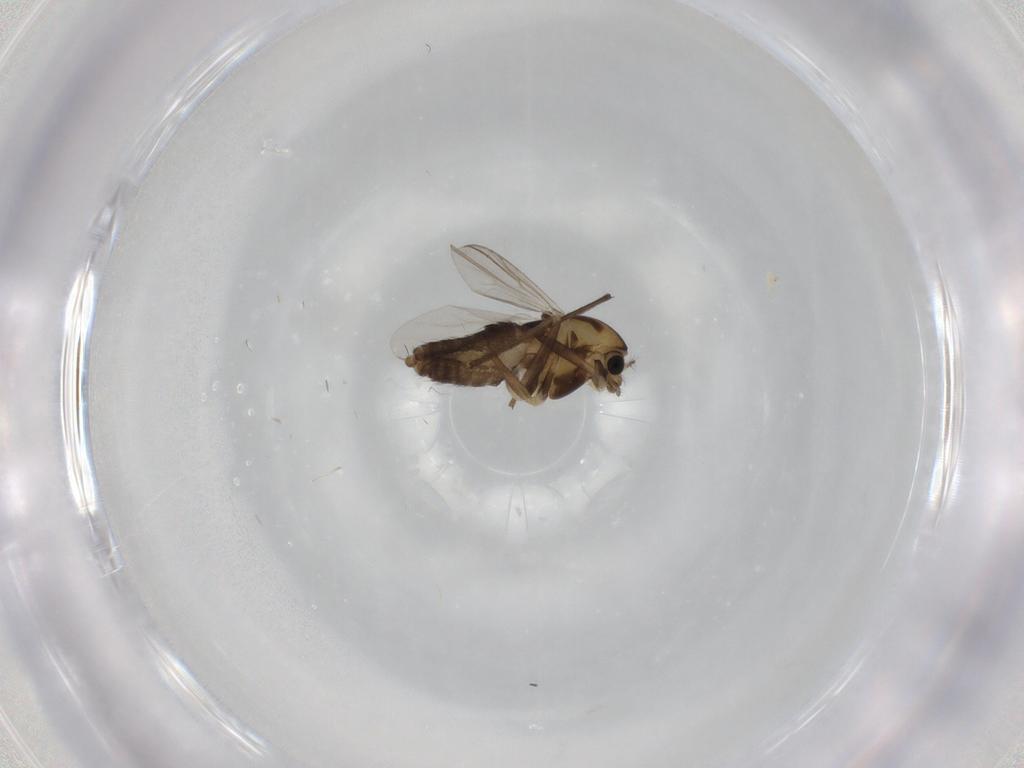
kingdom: Animalia
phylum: Arthropoda
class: Insecta
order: Diptera
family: Chironomidae
